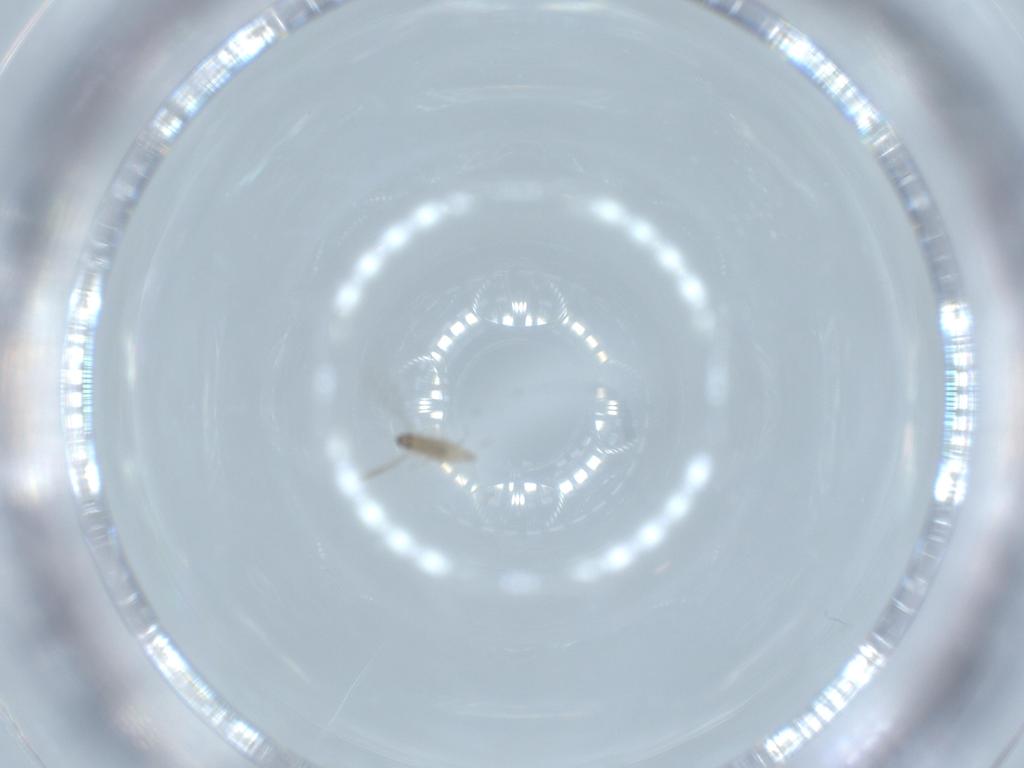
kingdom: Animalia
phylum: Arthropoda
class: Insecta
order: Diptera
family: Cecidomyiidae
